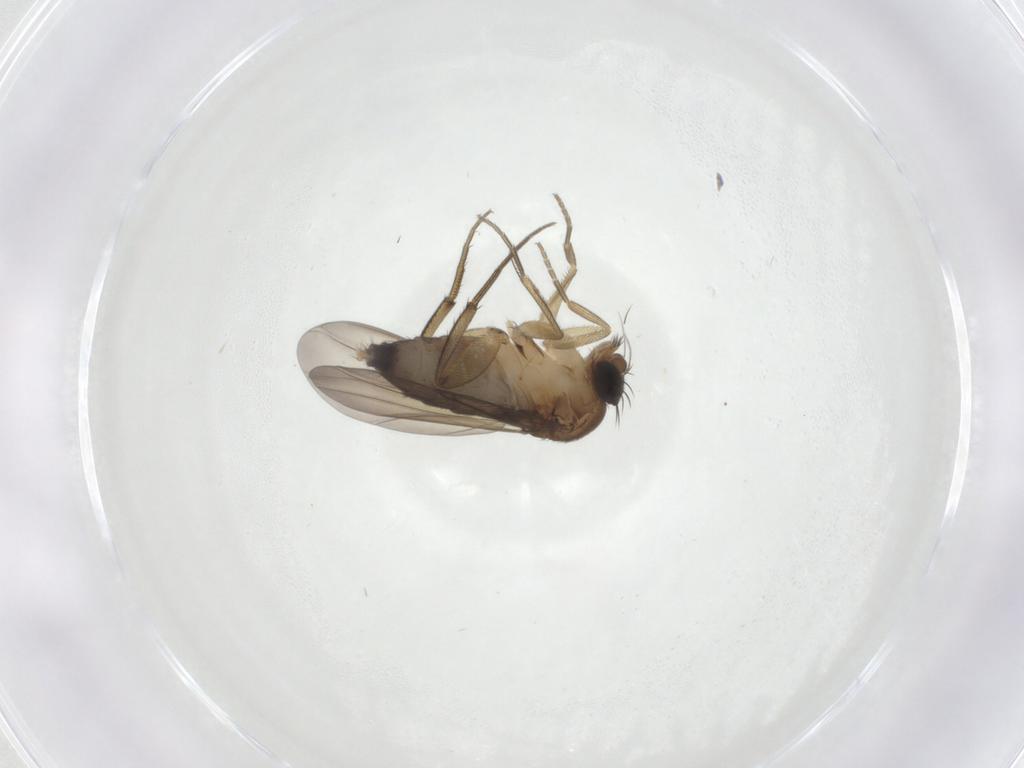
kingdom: Animalia
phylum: Arthropoda
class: Insecta
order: Diptera
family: Phoridae
